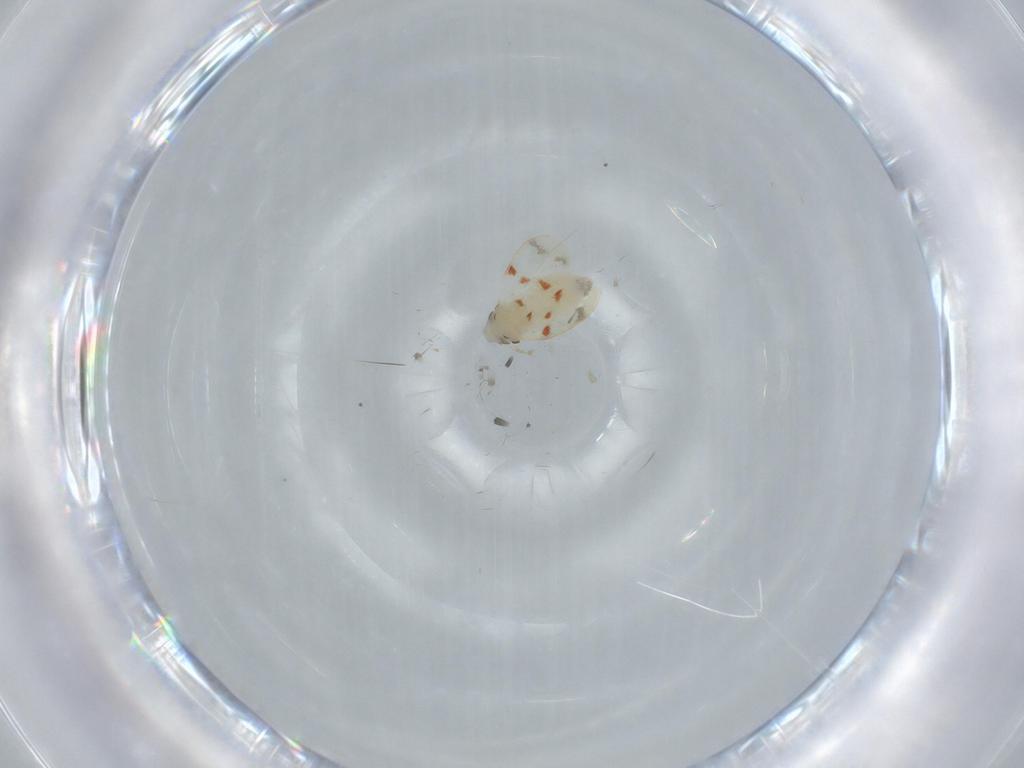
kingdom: Animalia
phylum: Arthropoda
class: Insecta
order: Hemiptera
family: Aleyrodidae
